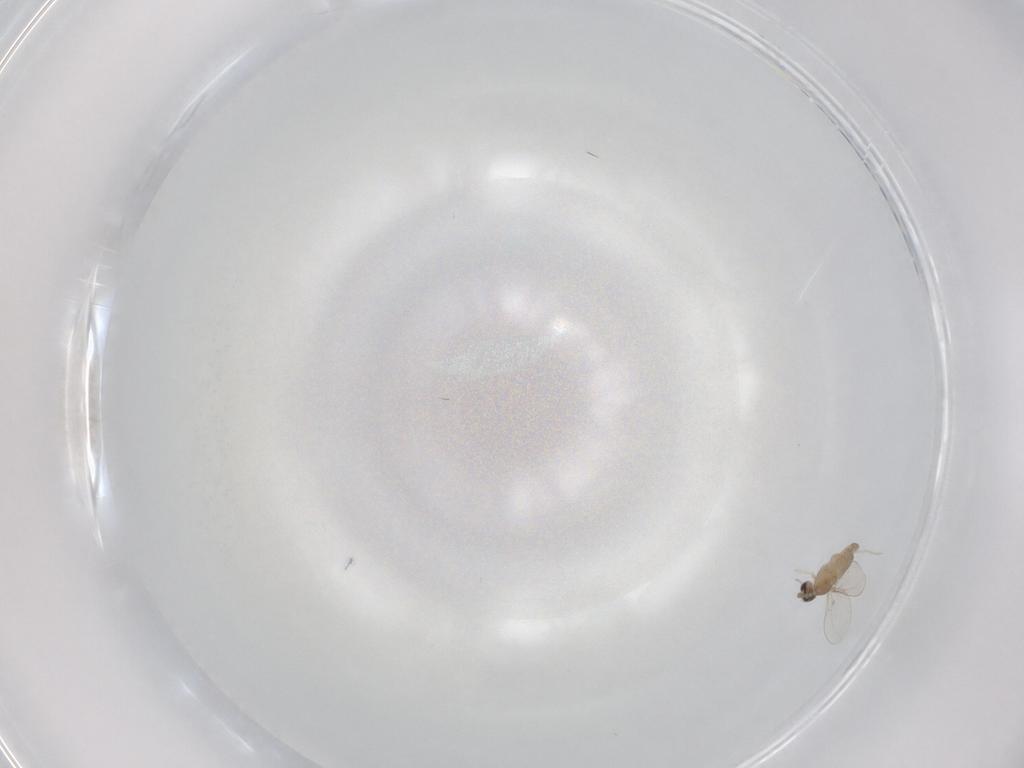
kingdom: Animalia
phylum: Arthropoda
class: Insecta
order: Diptera
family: Cecidomyiidae
